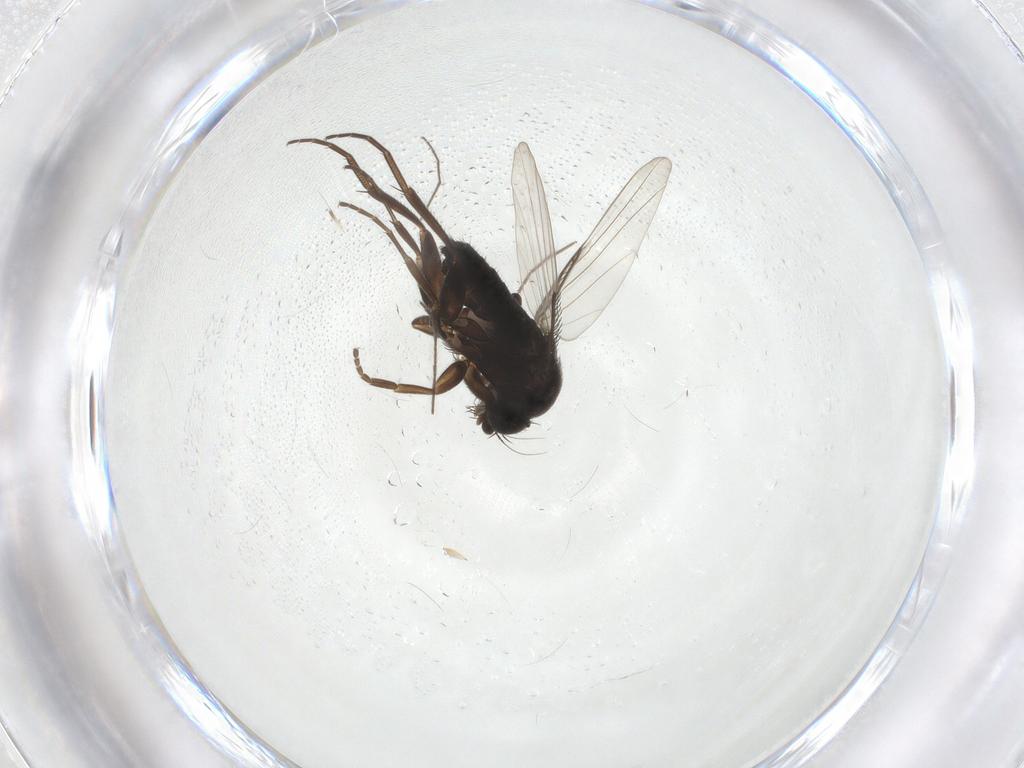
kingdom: Animalia
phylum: Arthropoda
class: Insecta
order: Diptera
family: Phoridae
